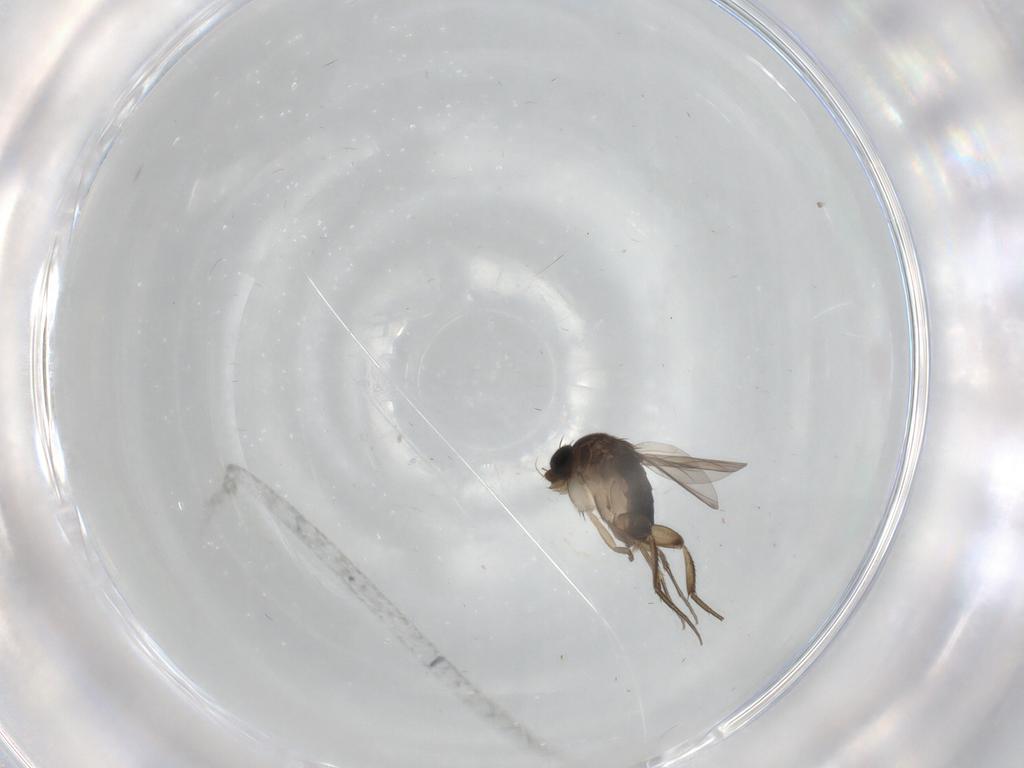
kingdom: Animalia
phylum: Arthropoda
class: Insecta
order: Diptera
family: Phoridae
